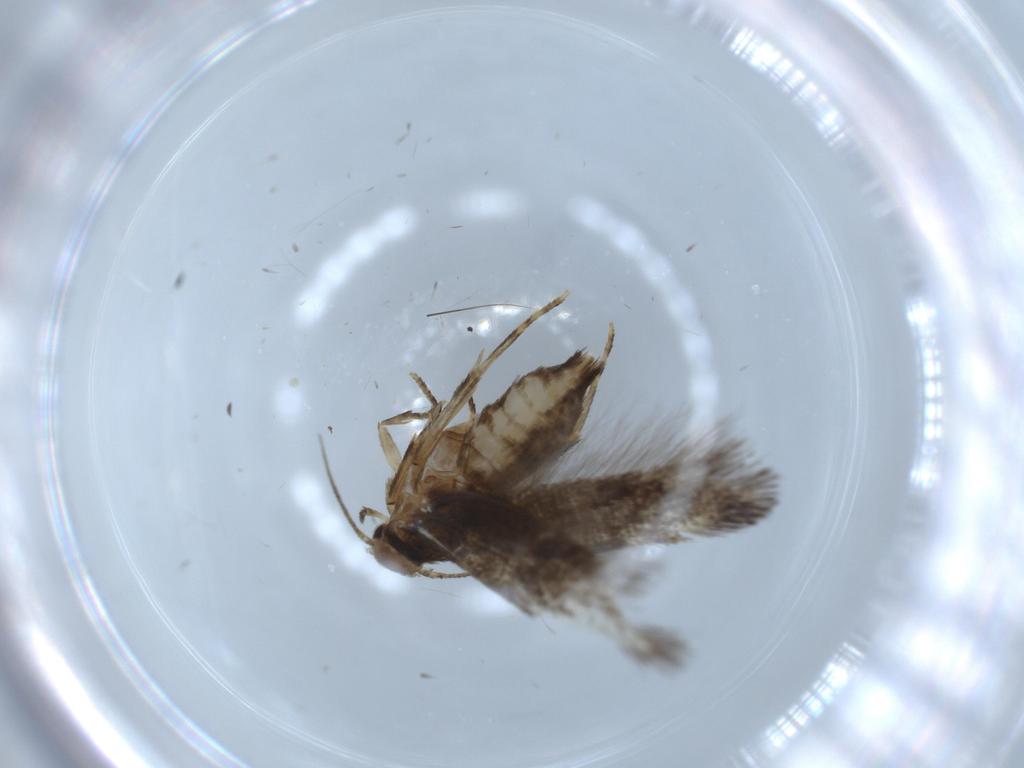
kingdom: Animalia
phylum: Arthropoda
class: Insecta
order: Lepidoptera
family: Gelechiidae
